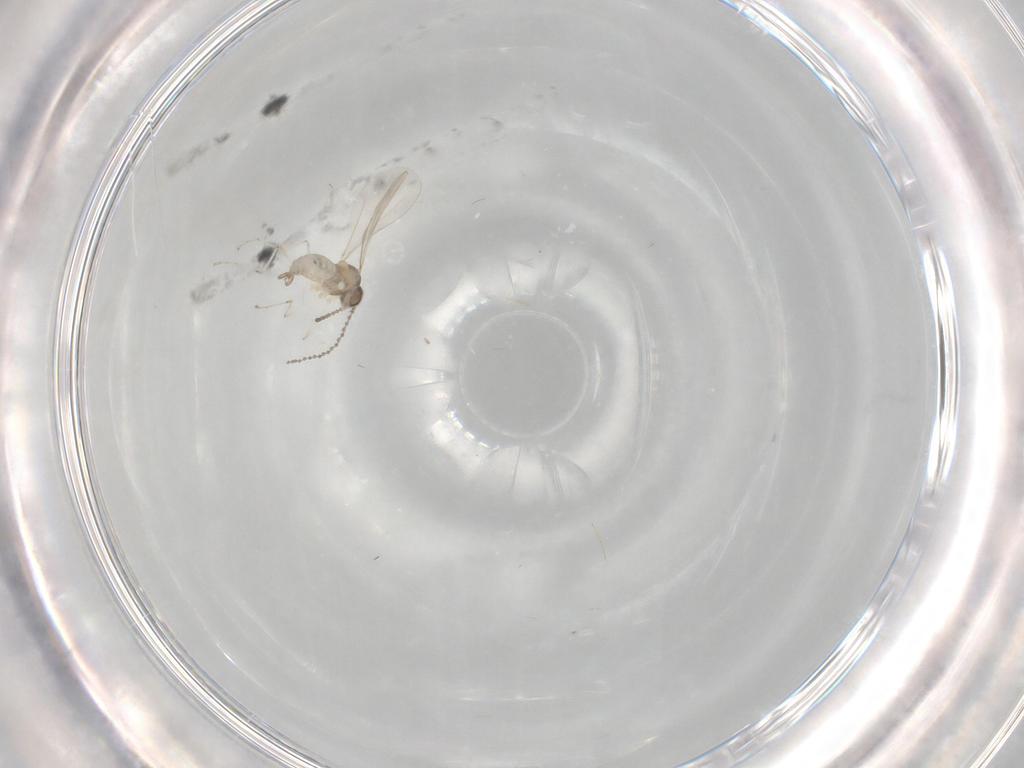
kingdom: Animalia
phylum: Arthropoda
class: Insecta
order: Diptera
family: Cecidomyiidae
